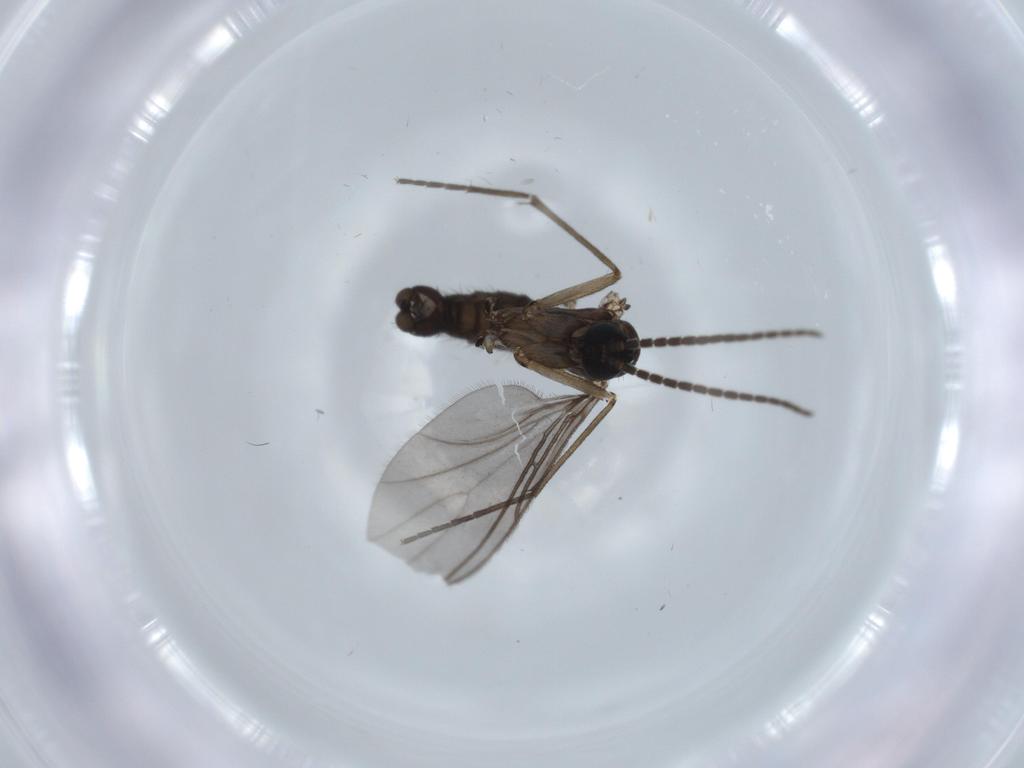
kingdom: Animalia
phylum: Arthropoda
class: Insecta
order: Diptera
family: Sciaridae
